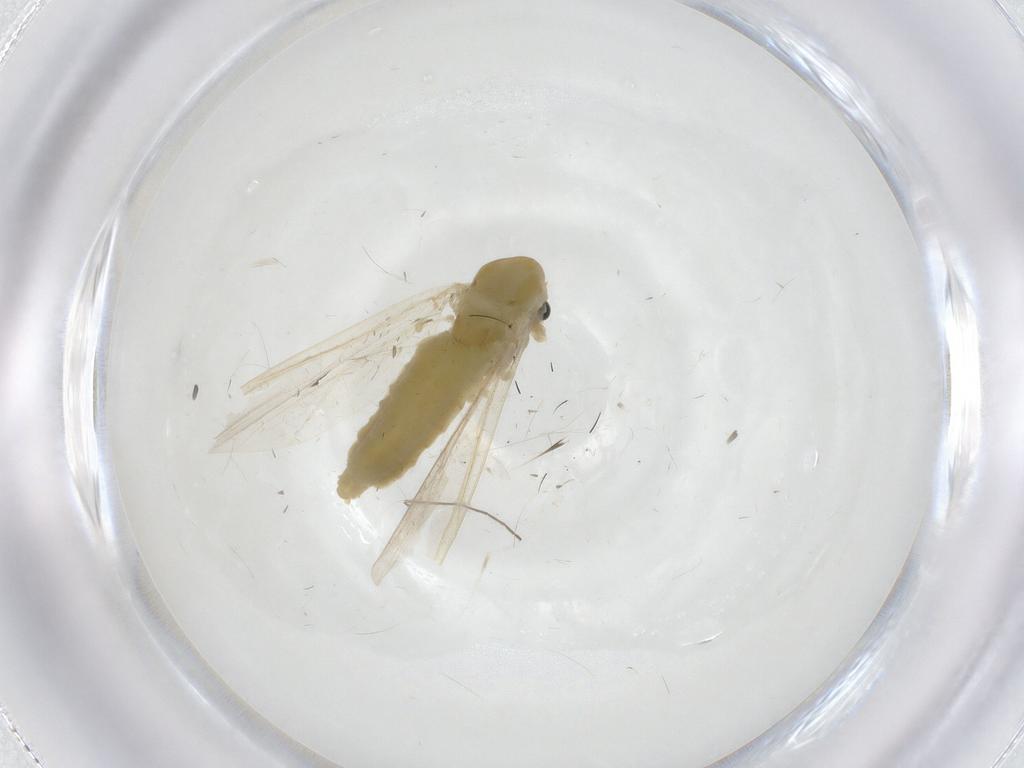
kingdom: Animalia
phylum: Arthropoda
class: Insecta
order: Diptera
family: Chironomidae
